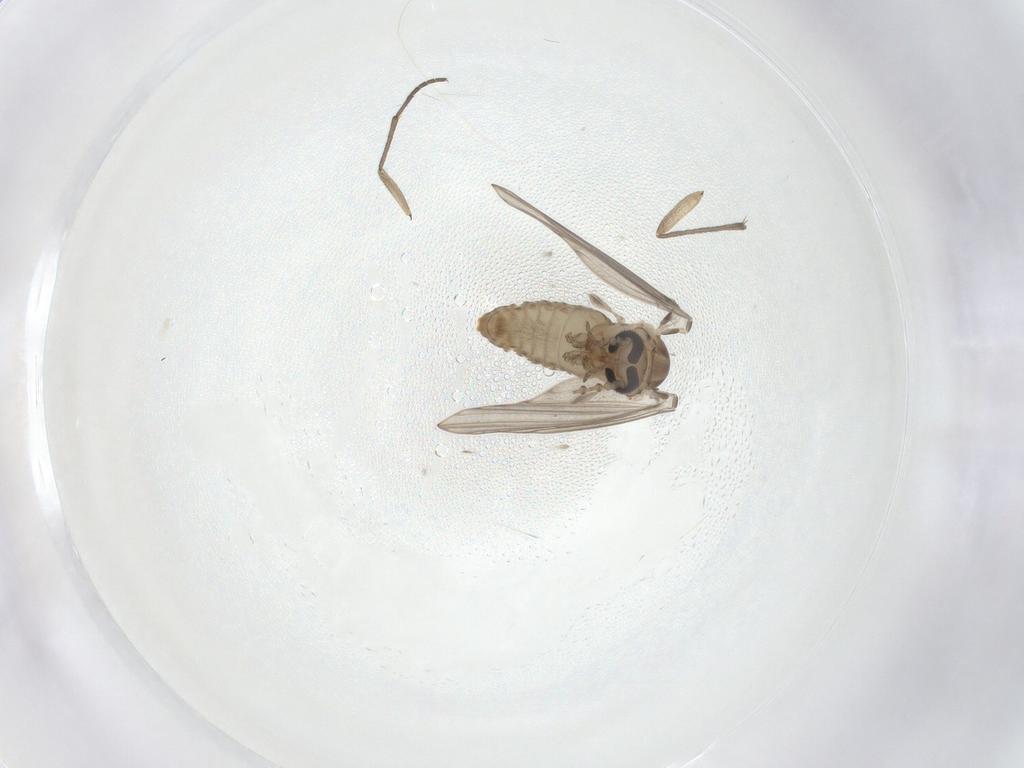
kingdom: Animalia
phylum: Arthropoda
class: Insecta
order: Diptera
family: Psychodidae
